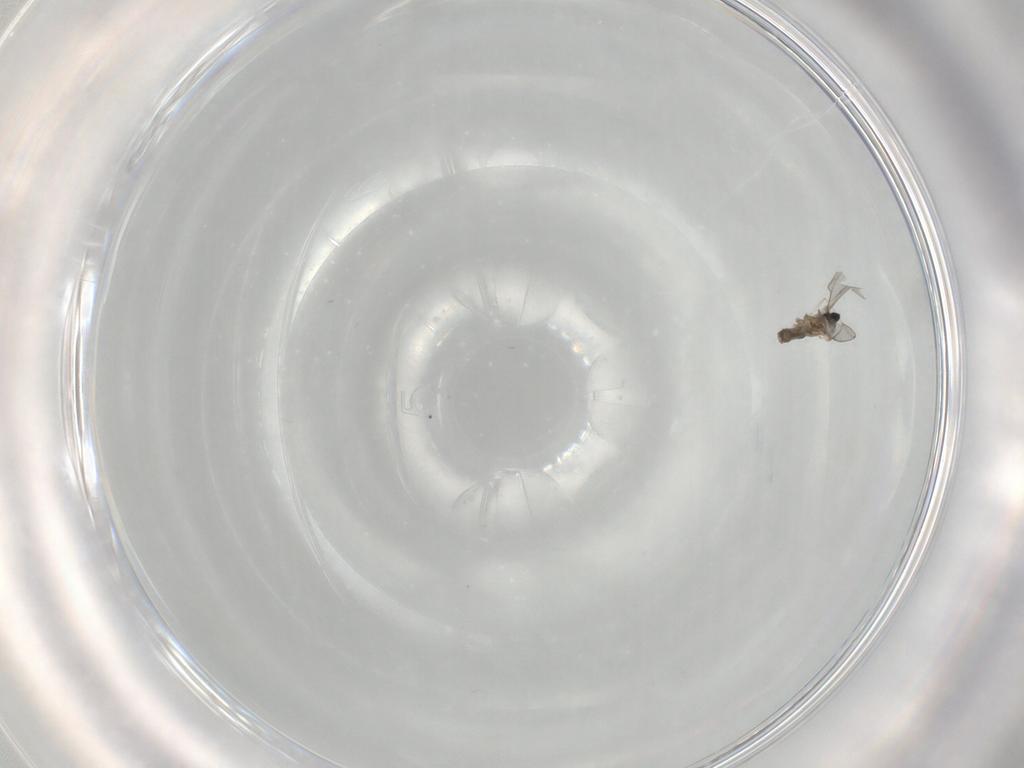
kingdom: Animalia
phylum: Arthropoda
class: Insecta
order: Diptera
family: Cecidomyiidae
